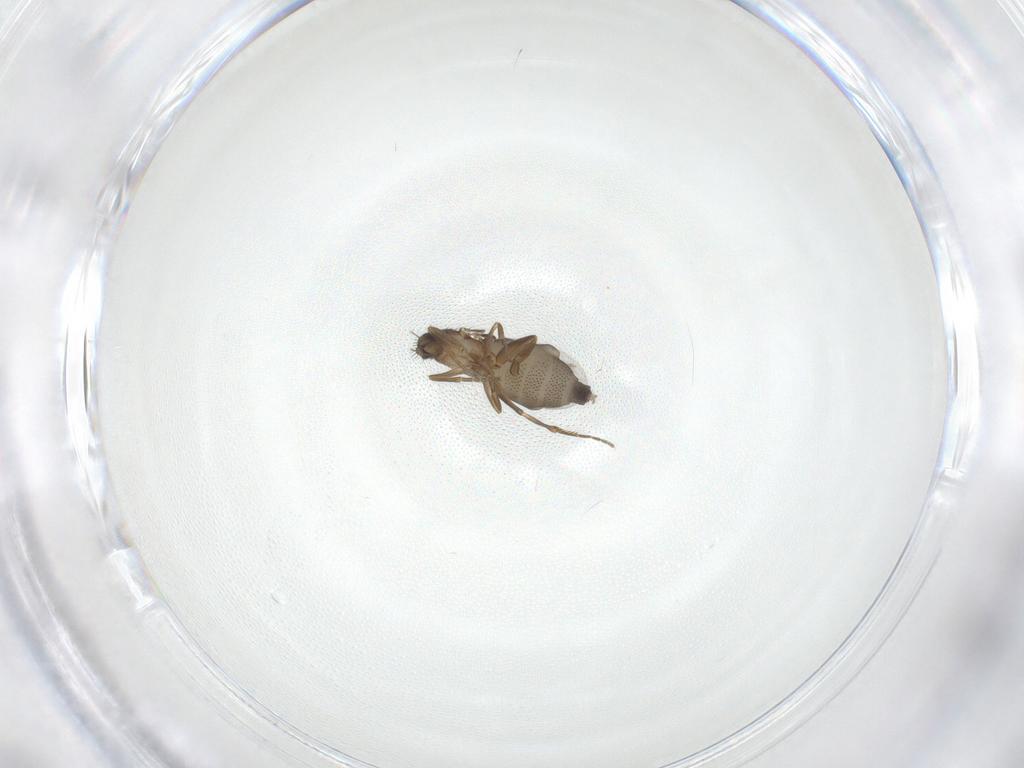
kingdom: Animalia
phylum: Arthropoda
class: Insecta
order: Diptera
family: Phoridae
